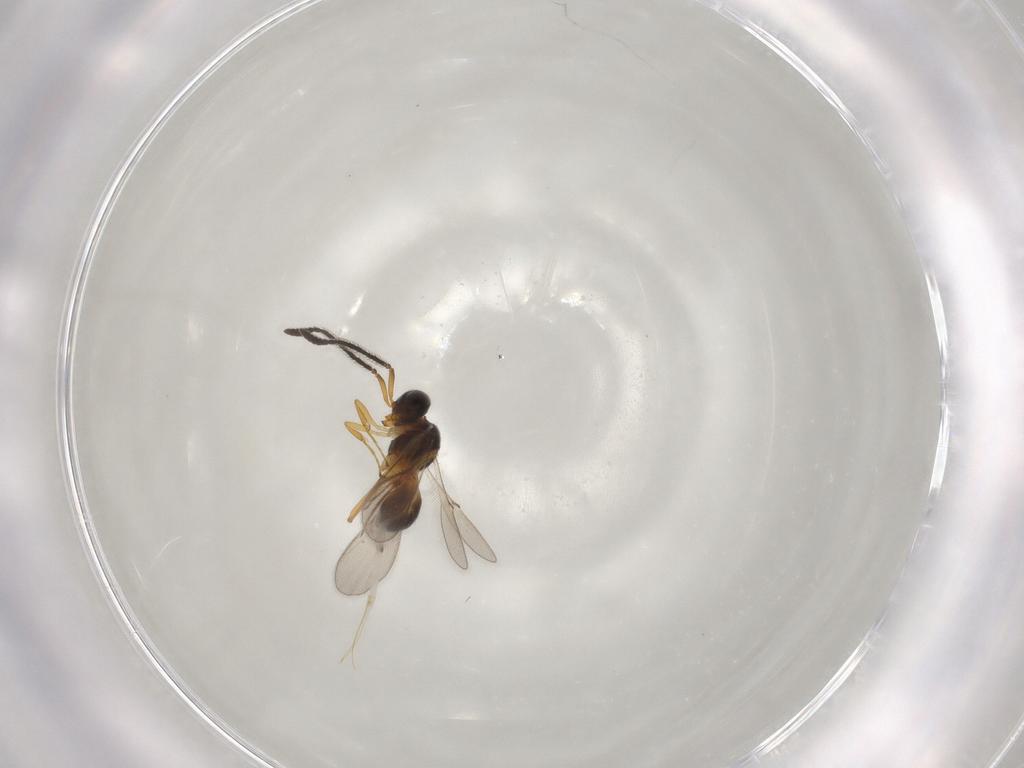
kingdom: Animalia
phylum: Arthropoda
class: Insecta
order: Hymenoptera
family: Scelionidae
